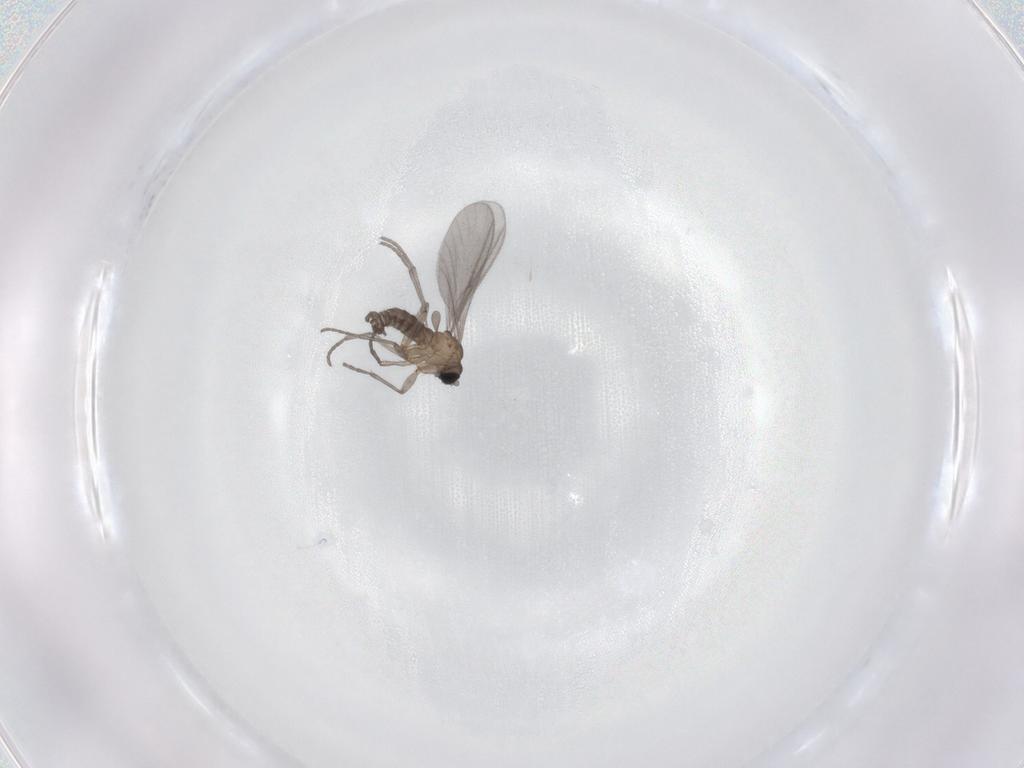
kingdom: Animalia
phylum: Arthropoda
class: Insecta
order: Diptera
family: Sciaridae
